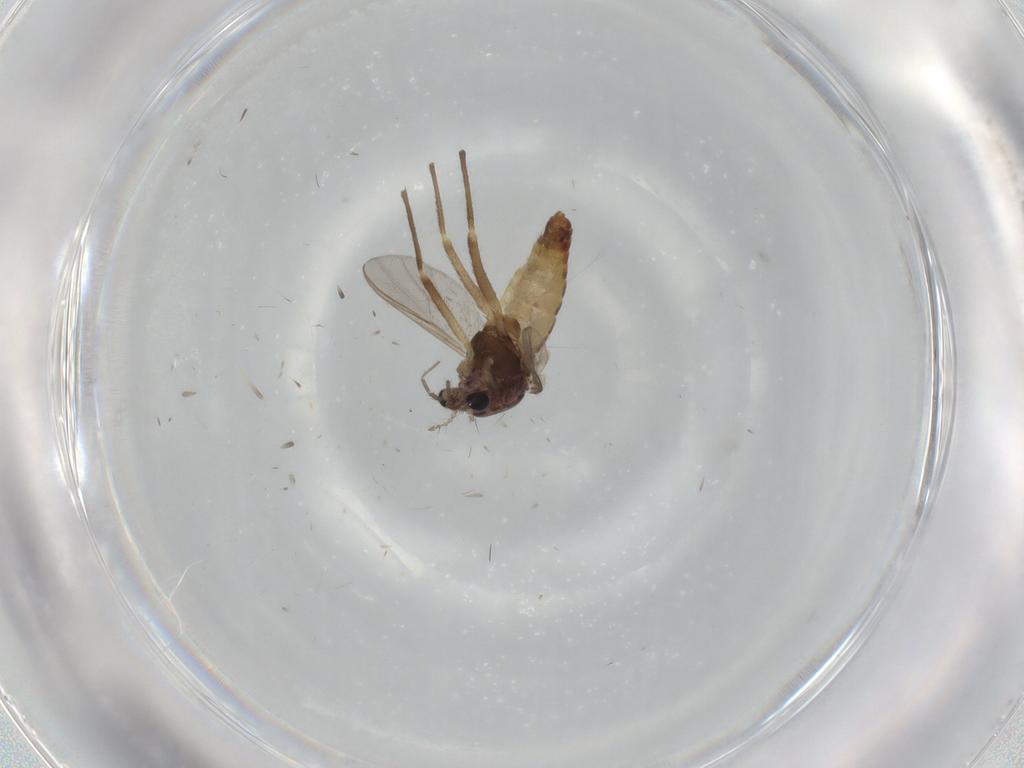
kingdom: Animalia
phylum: Arthropoda
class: Insecta
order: Diptera
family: Chironomidae
